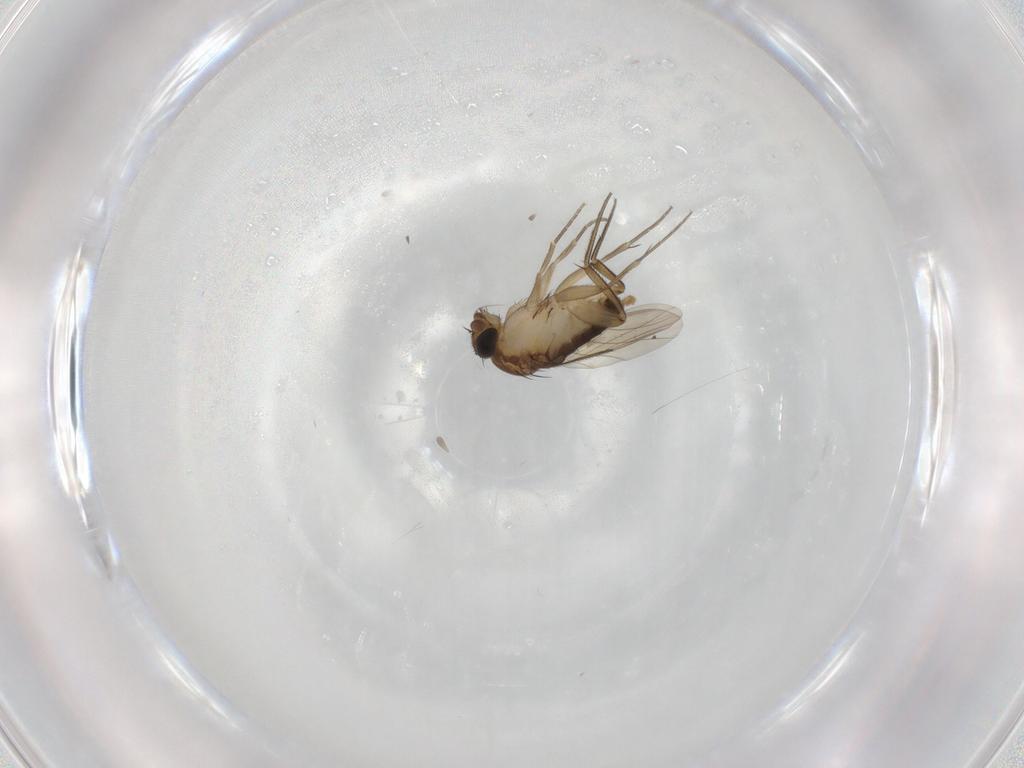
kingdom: Animalia
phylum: Arthropoda
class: Insecta
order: Diptera
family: Phoridae
